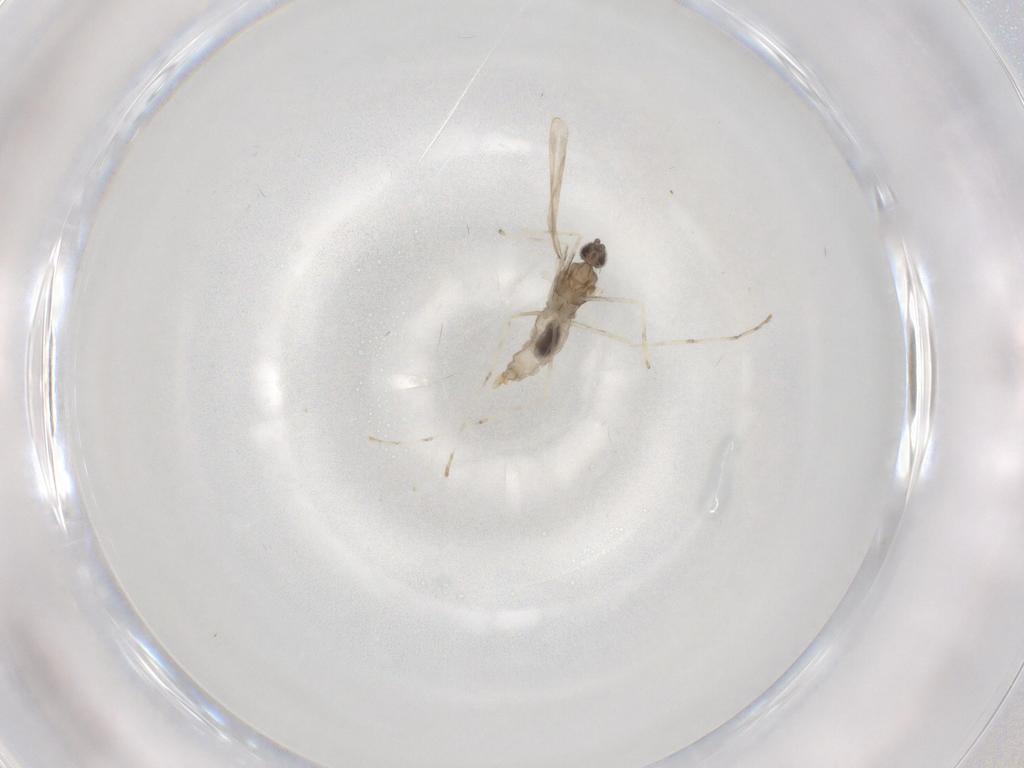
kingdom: Animalia
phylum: Arthropoda
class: Insecta
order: Diptera
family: Cecidomyiidae
